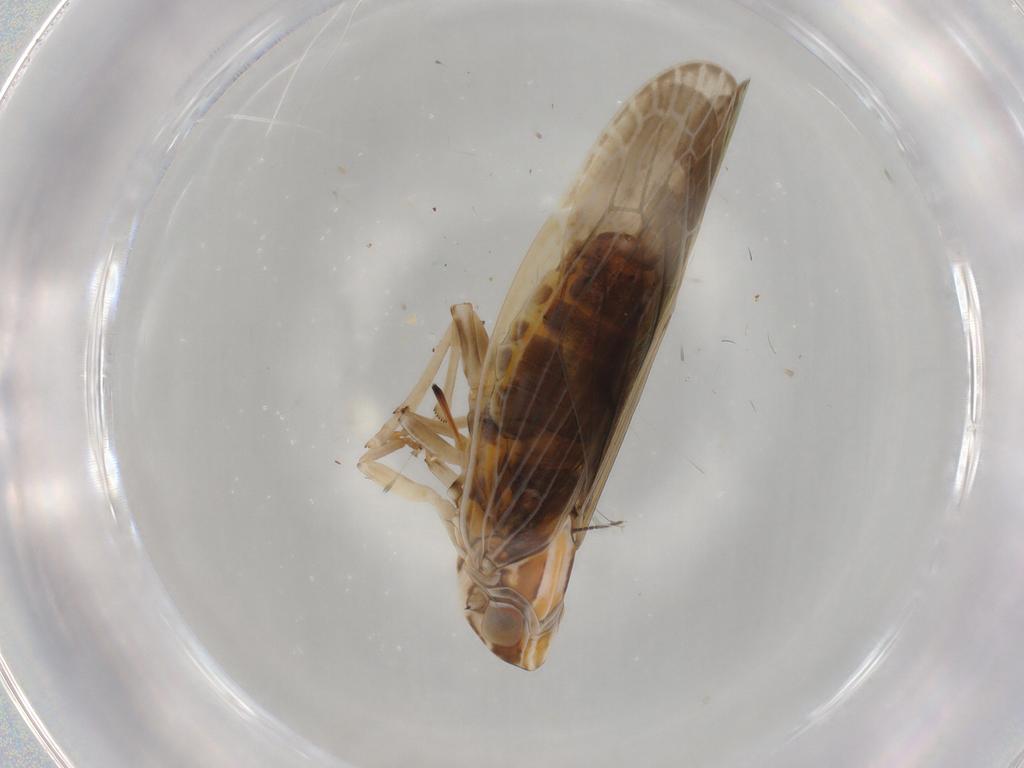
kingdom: Animalia
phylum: Arthropoda
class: Insecta
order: Hemiptera
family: Achilidae
